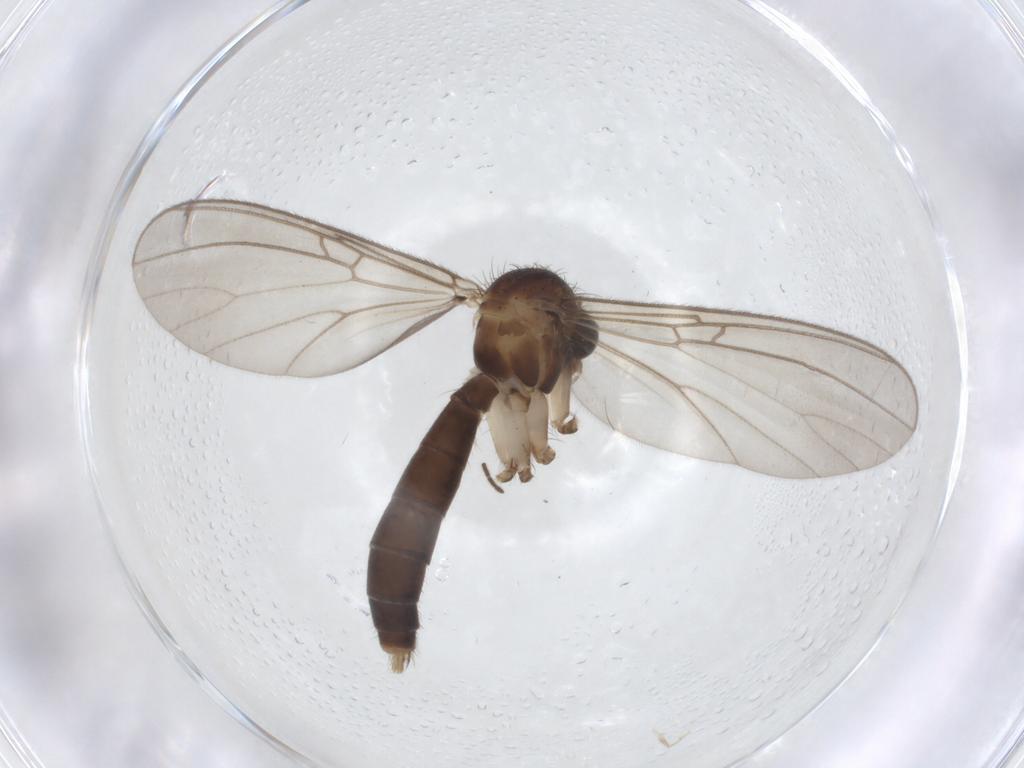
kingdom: Animalia
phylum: Arthropoda
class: Insecta
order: Diptera
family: Mycetophilidae
